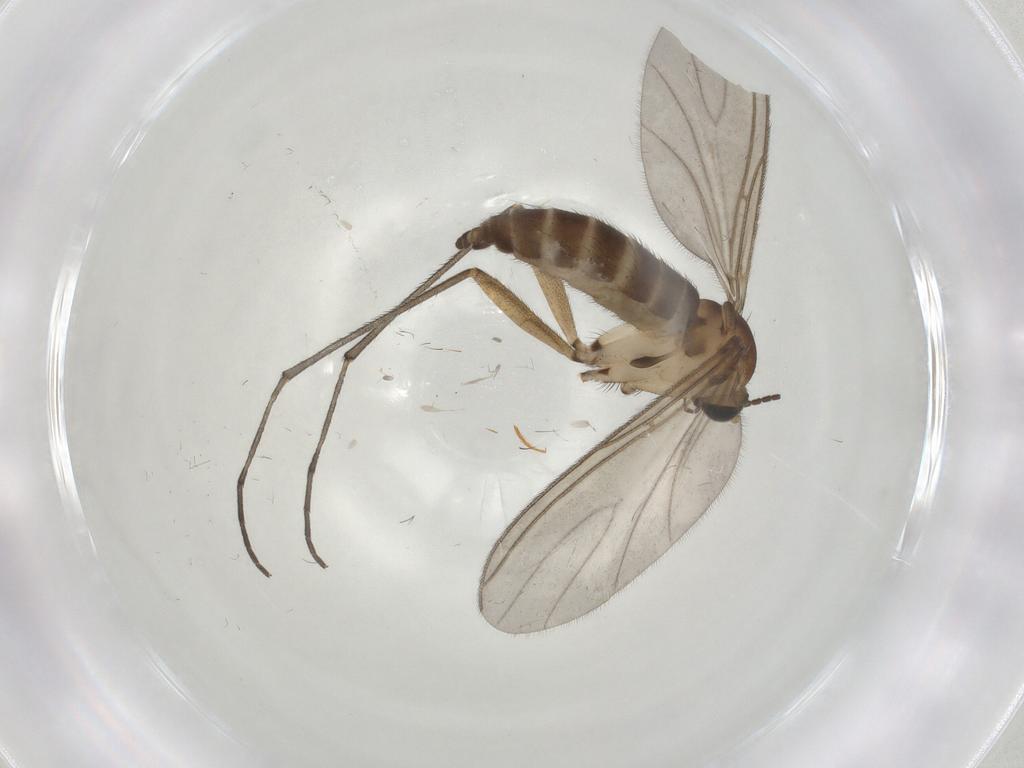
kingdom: Animalia
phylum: Arthropoda
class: Insecta
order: Diptera
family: Sciaridae
